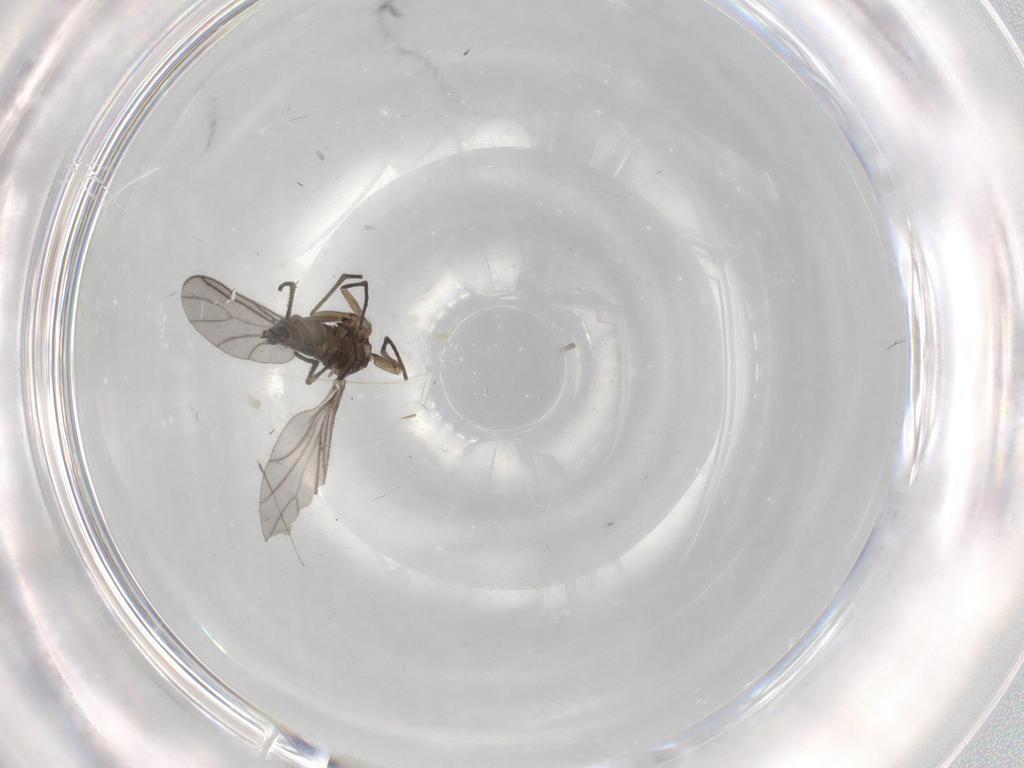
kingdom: Animalia
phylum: Arthropoda
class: Insecta
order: Diptera
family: Sciaridae
